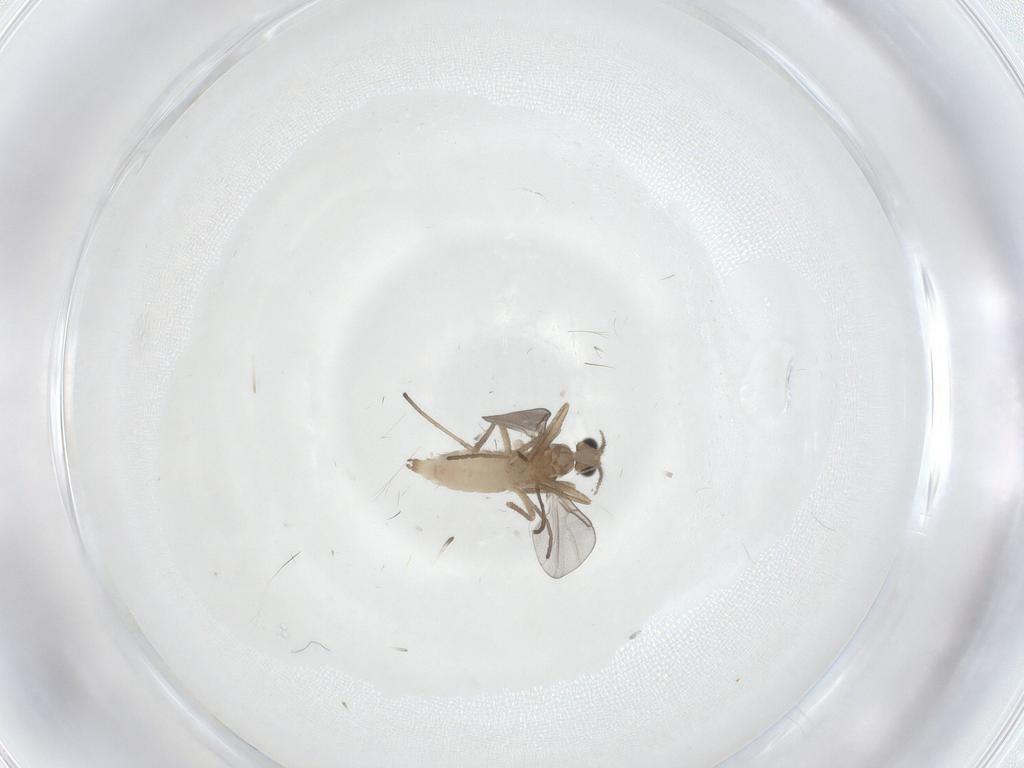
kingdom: Animalia
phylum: Arthropoda
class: Insecta
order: Diptera
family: Cecidomyiidae
